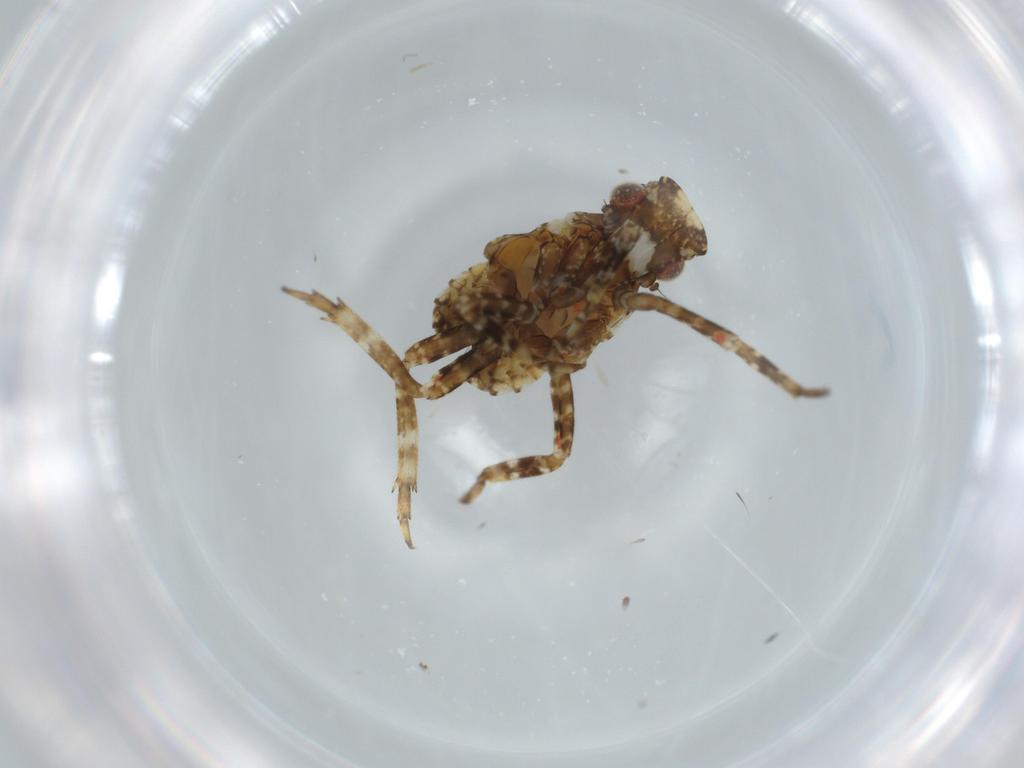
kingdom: Animalia
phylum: Arthropoda
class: Insecta
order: Hemiptera
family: Fulgoridae
